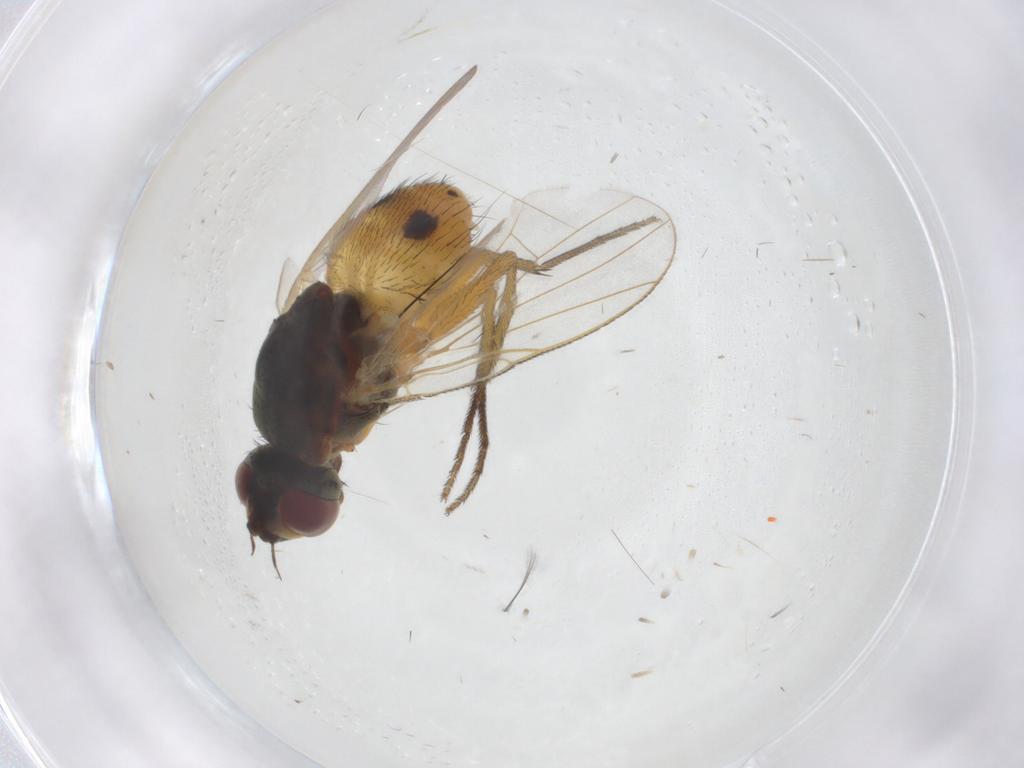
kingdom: Animalia
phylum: Arthropoda
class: Insecta
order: Diptera
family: Muscidae
